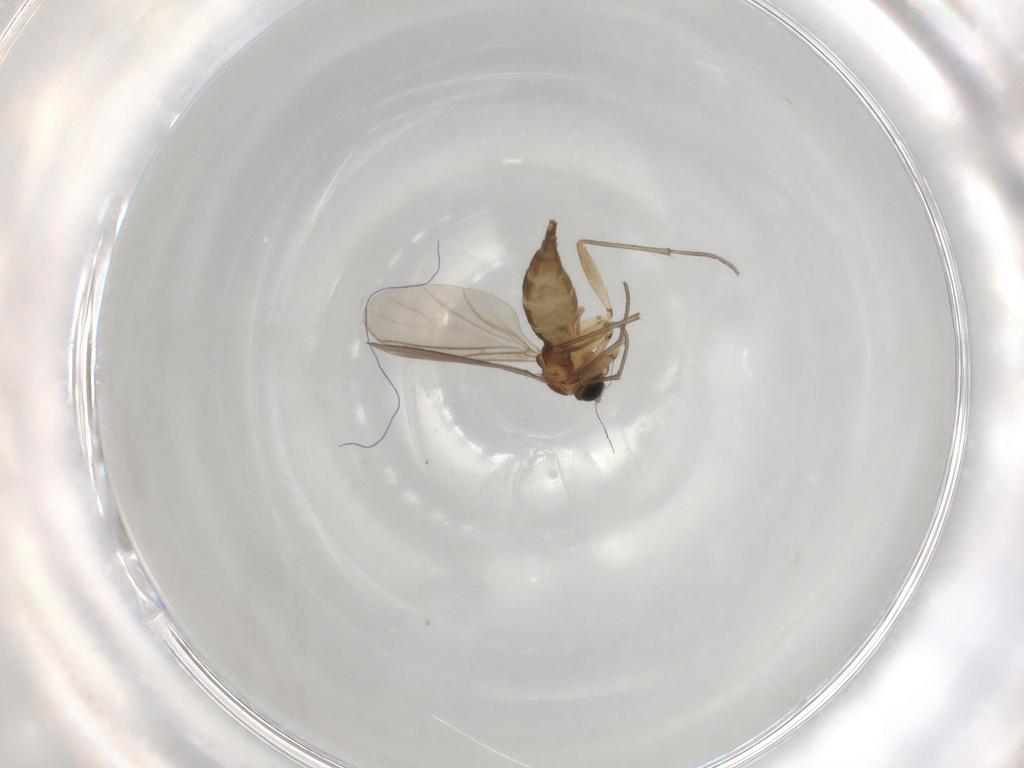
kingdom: Animalia
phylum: Arthropoda
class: Insecta
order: Diptera
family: Sciaridae
